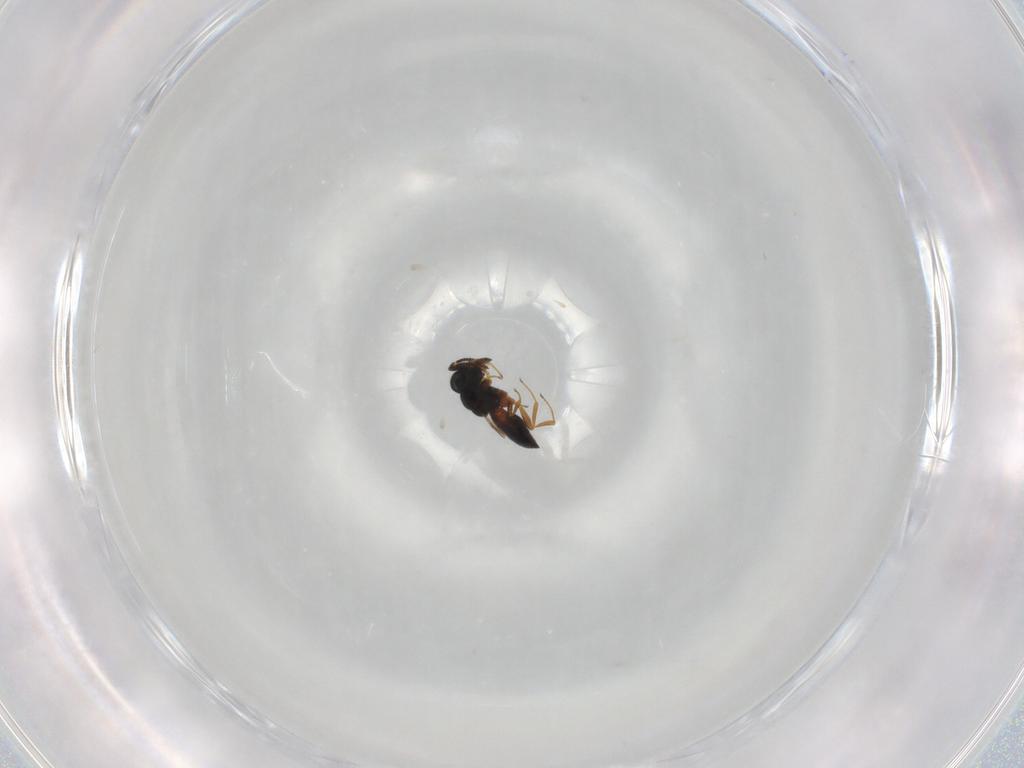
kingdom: Animalia
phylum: Arthropoda
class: Insecta
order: Hymenoptera
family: Scelionidae
